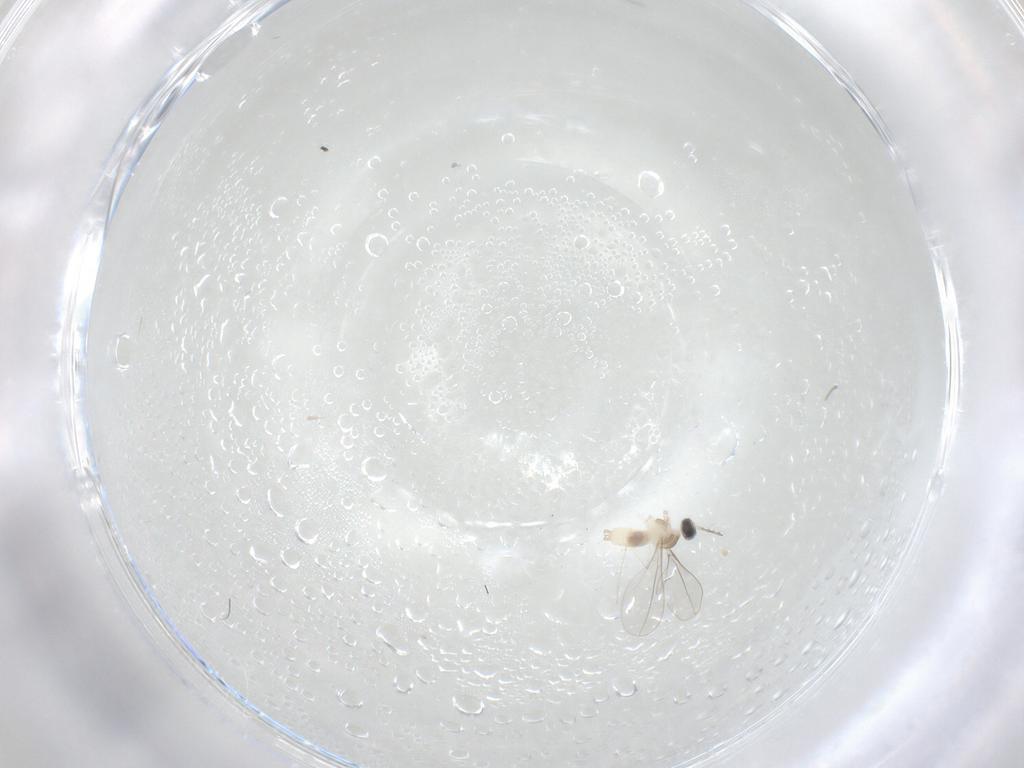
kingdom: Animalia
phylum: Arthropoda
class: Insecta
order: Diptera
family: Cecidomyiidae
